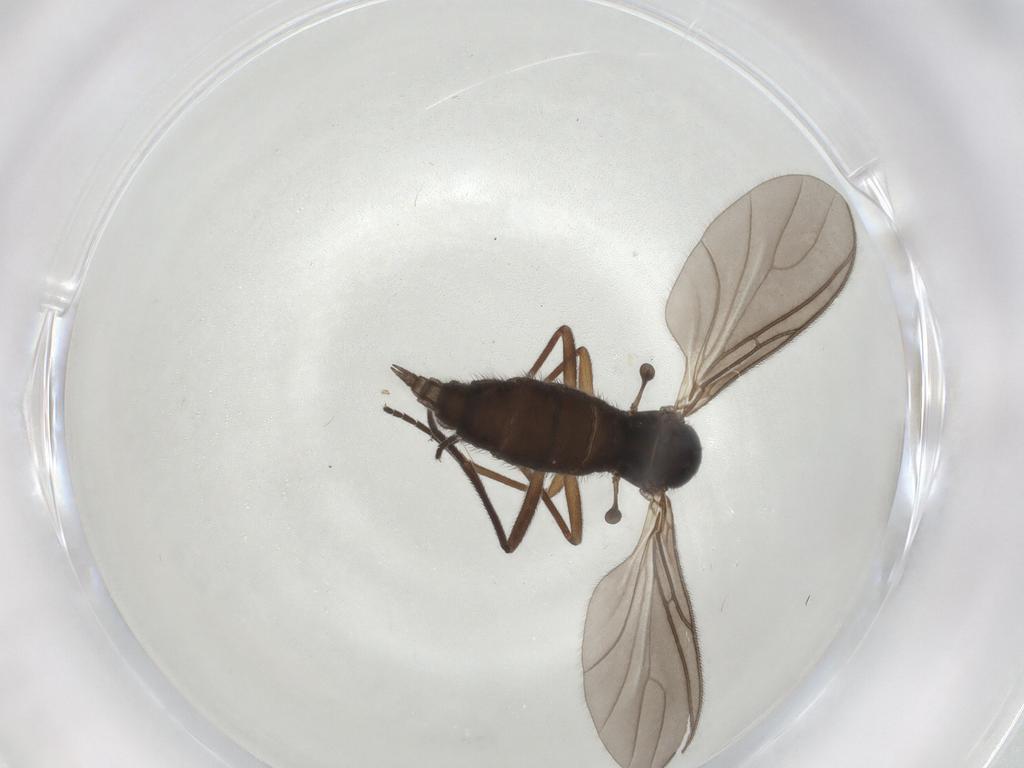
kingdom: Animalia
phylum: Arthropoda
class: Insecta
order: Diptera
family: Sciaridae
